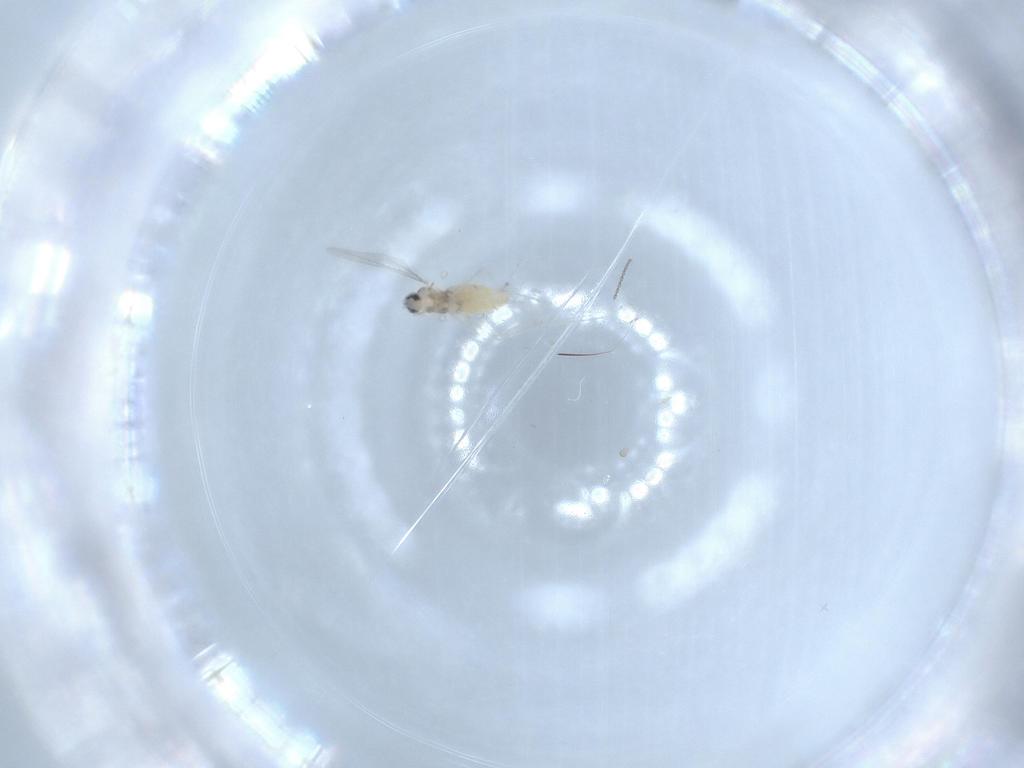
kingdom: Animalia
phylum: Arthropoda
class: Insecta
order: Diptera
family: Cecidomyiidae
